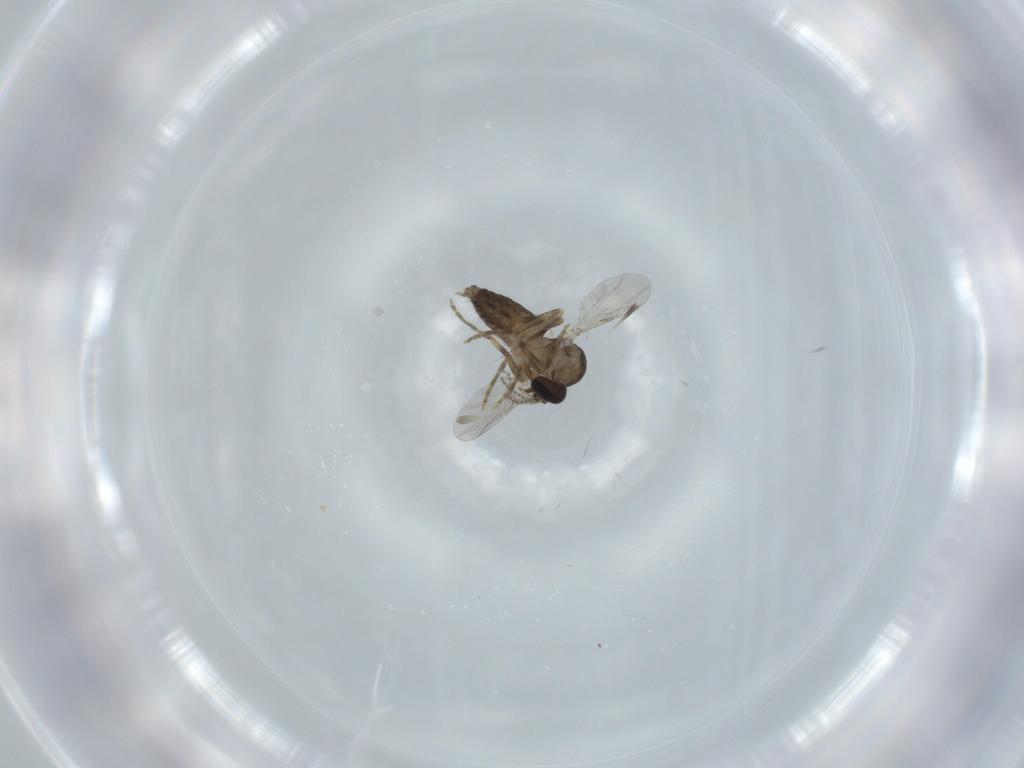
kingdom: Animalia
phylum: Arthropoda
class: Insecta
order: Diptera
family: Ceratopogonidae
